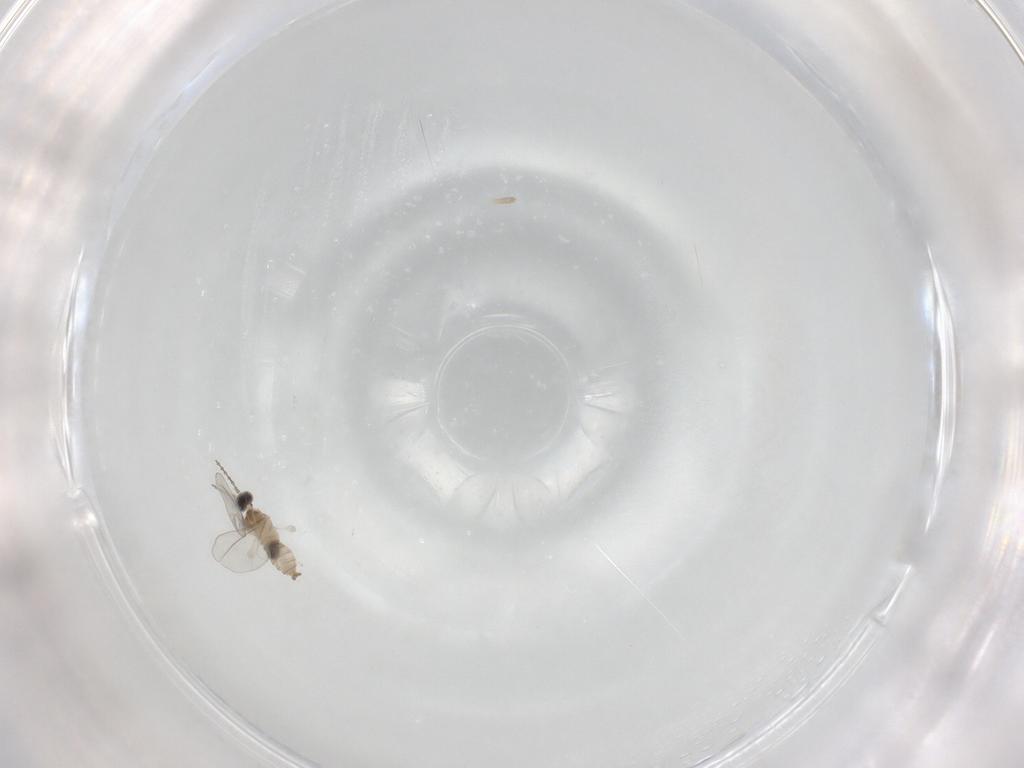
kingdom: Animalia
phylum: Arthropoda
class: Insecta
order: Diptera
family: Cecidomyiidae
